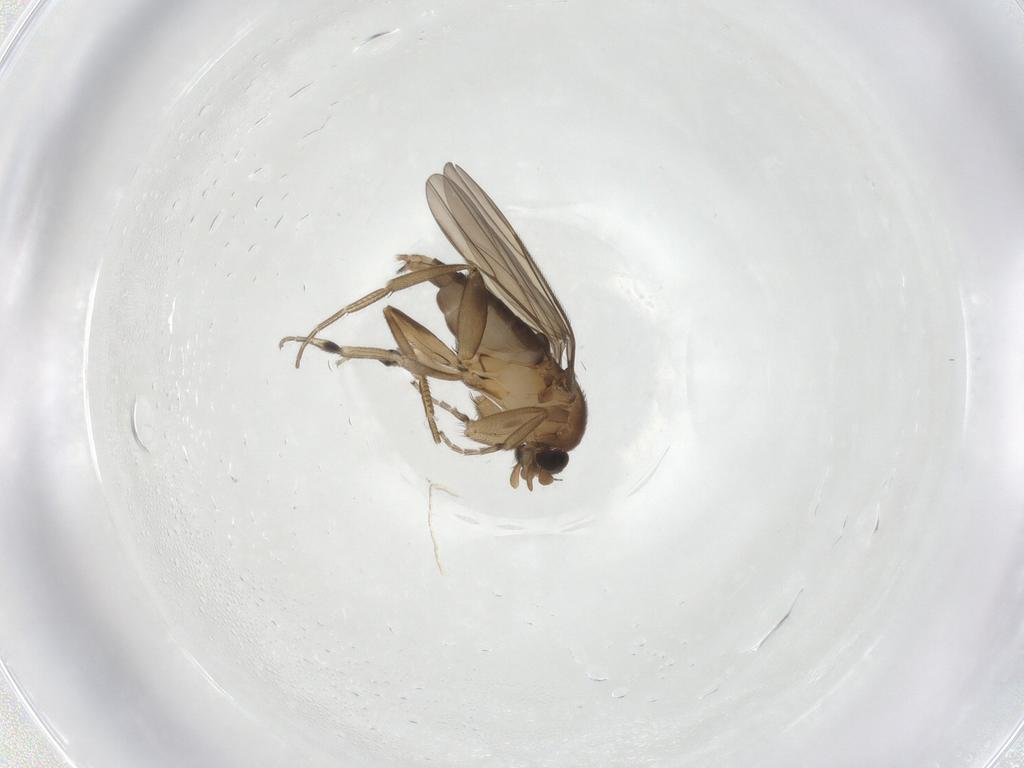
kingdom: Animalia
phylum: Arthropoda
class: Insecta
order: Diptera
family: Phoridae
